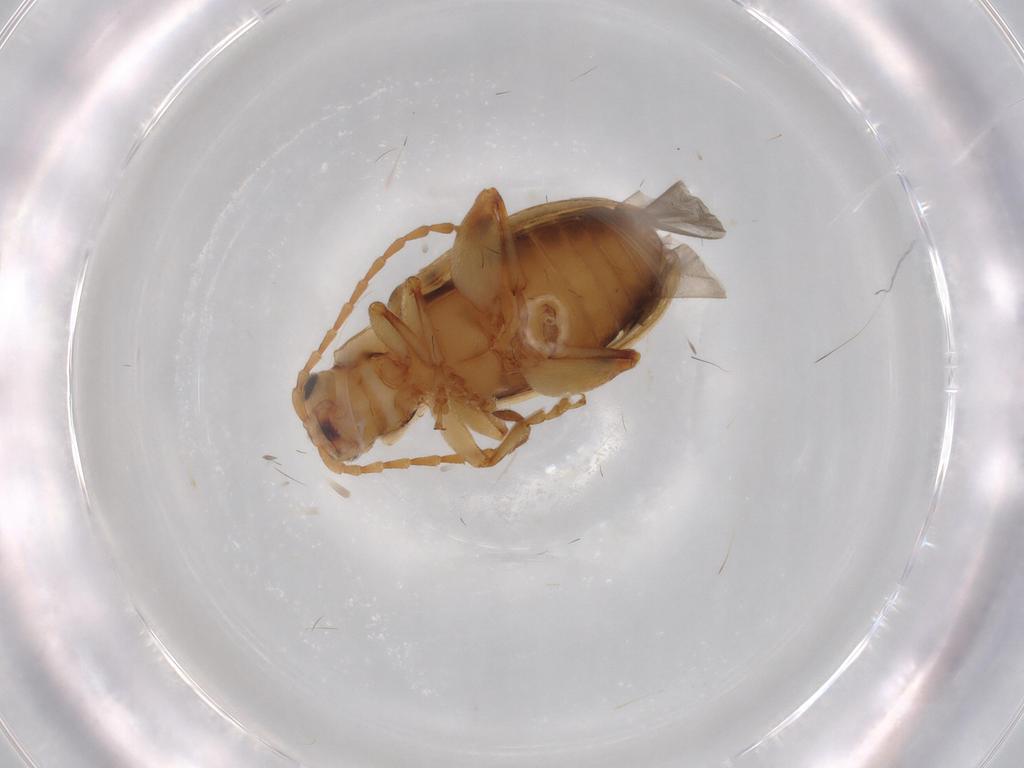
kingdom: Animalia
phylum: Arthropoda
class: Insecta
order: Coleoptera
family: Chrysomelidae
